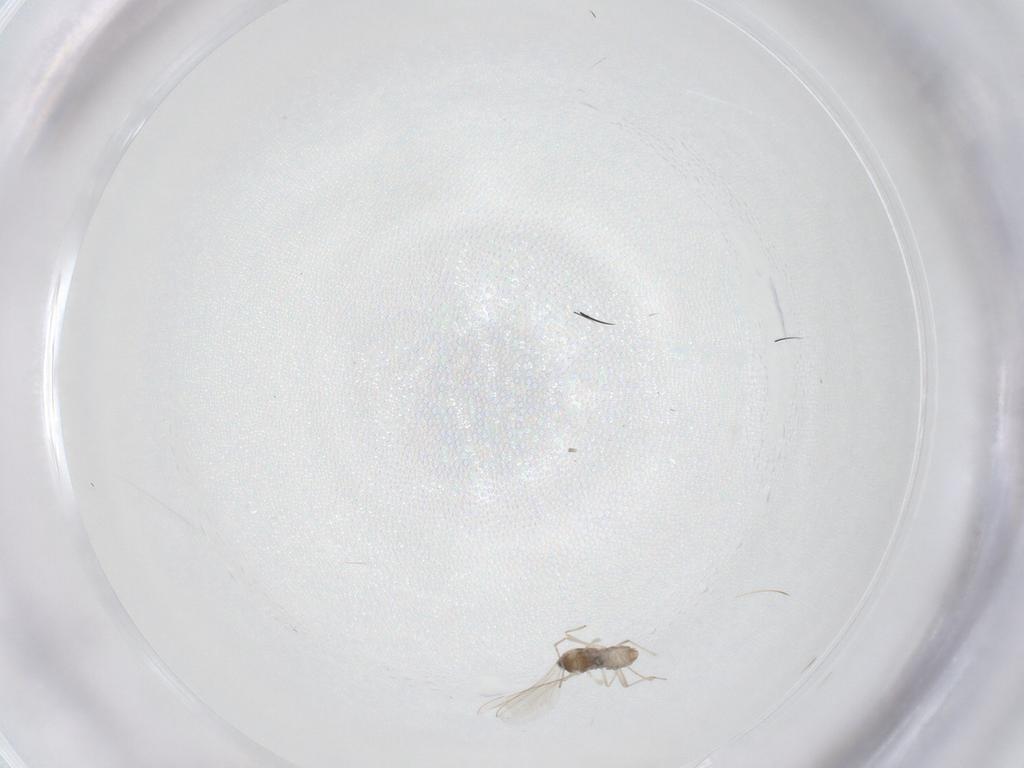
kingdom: Animalia
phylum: Arthropoda
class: Insecta
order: Diptera
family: Cecidomyiidae
